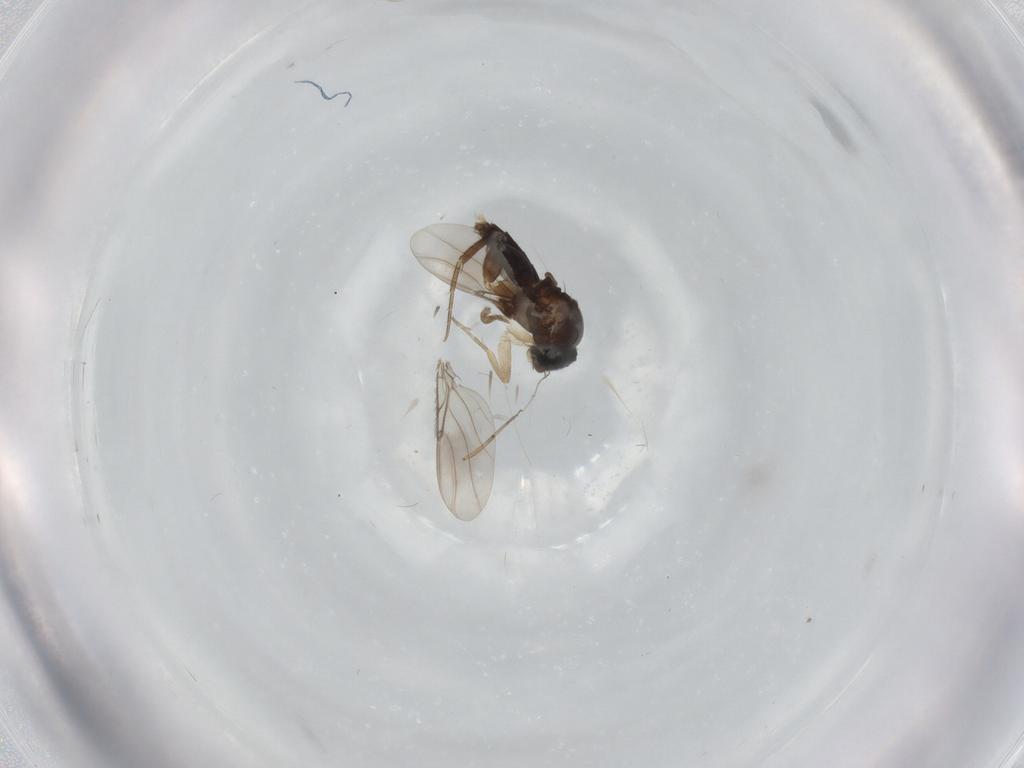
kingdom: Animalia
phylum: Arthropoda
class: Insecta
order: Diptera
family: Phoridae
